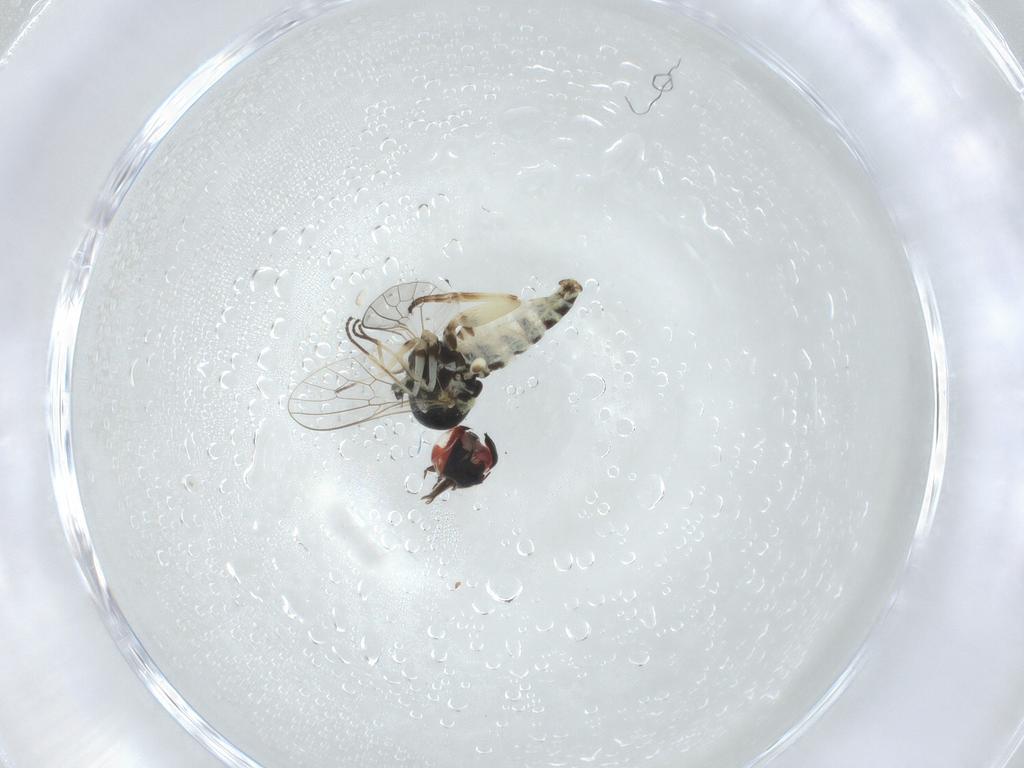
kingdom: Animalia
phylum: Arthropoda
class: Insecta
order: Diptera
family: Bombyliidae
